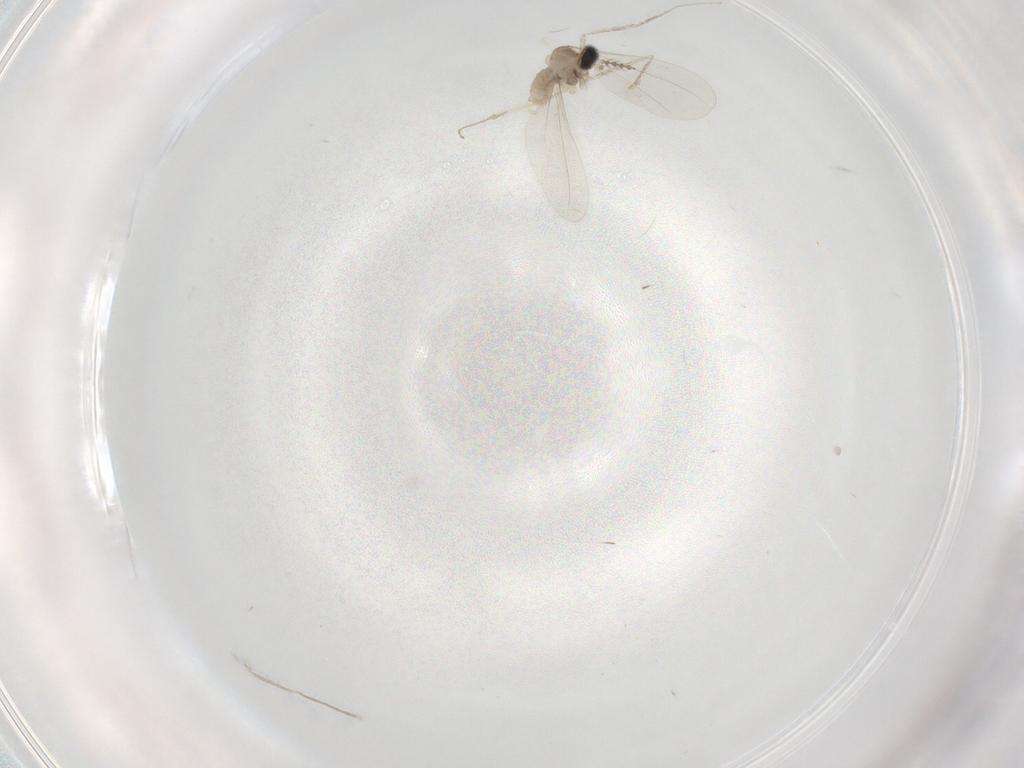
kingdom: Animalia
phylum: Arthropoda
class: Insecta
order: Diptera
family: Cecidomyiidae
